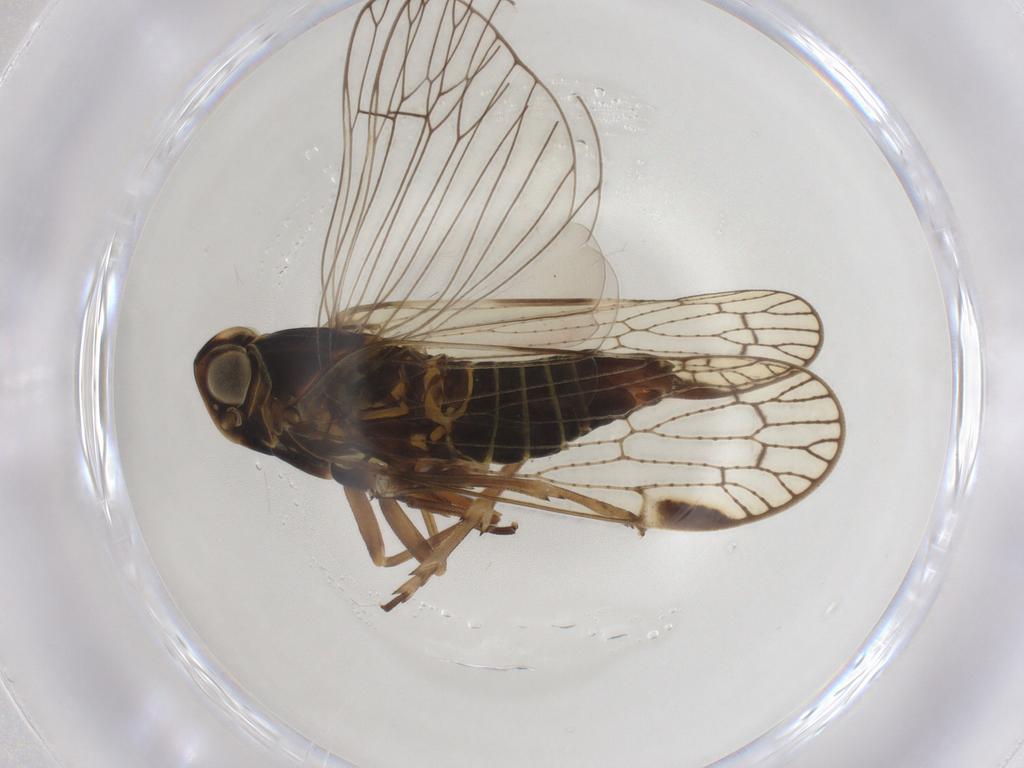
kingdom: Animalia
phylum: Arthropoda
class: Insecta
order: Hemiptera
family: Cixiidae
